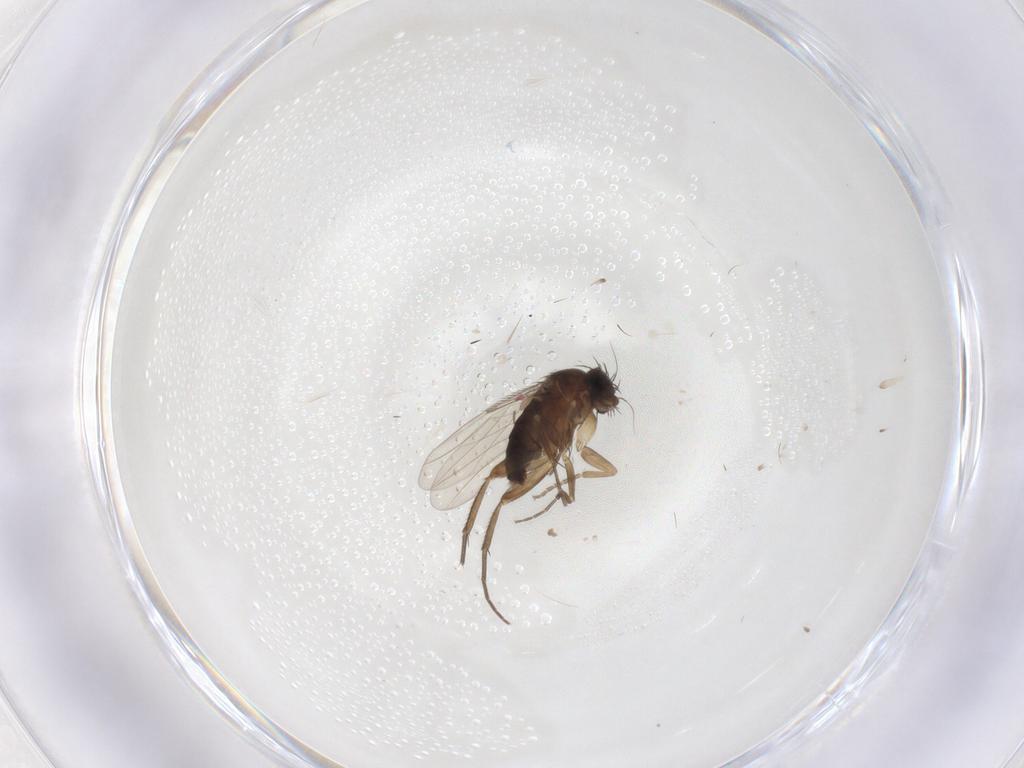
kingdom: Animalia
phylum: Arthropoda
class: Insecta
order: Diptera
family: Phoridae
